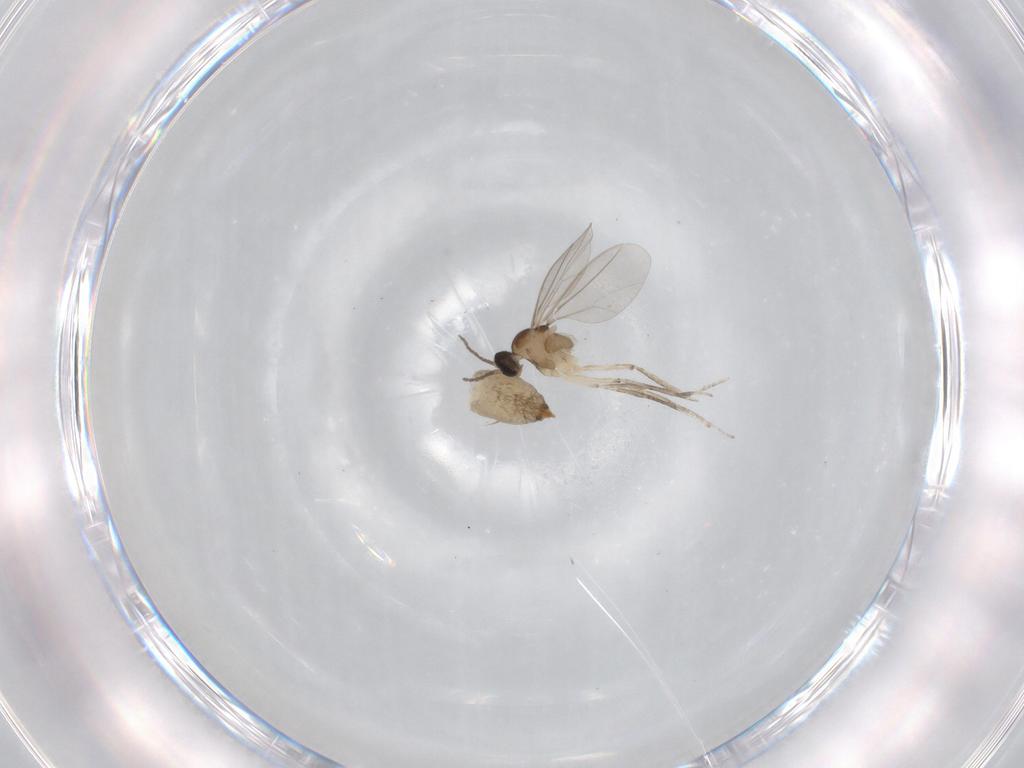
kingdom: Animalia
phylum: Arthropoda
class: Insecta
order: Diptera
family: Cecidomyiidae
